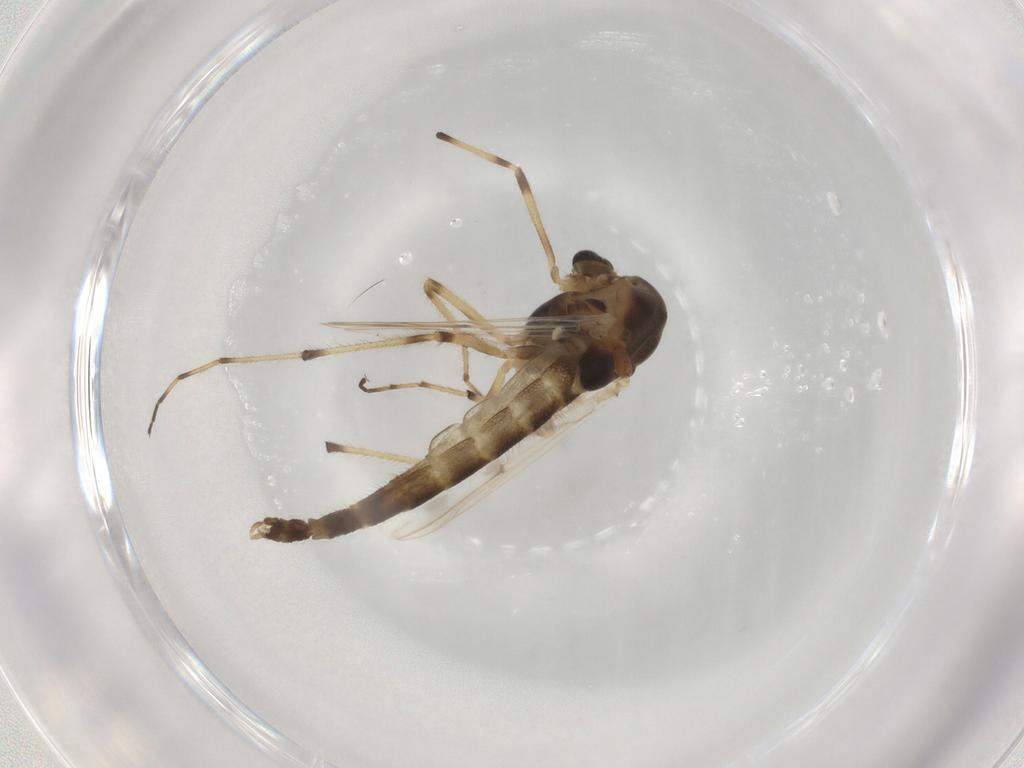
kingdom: Animalia
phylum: Arthropoda
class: Insecta
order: Diptera
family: Chironomidae
